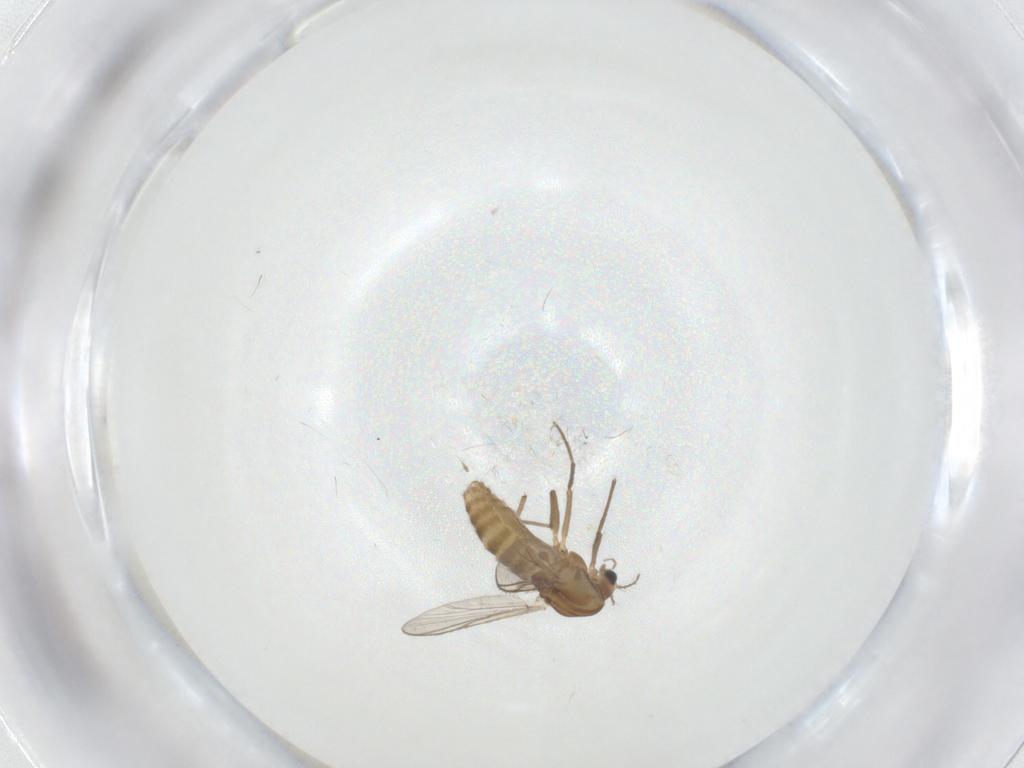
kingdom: Animalia
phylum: Arthropoda
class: Insecta
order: Diptera
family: Chironomidae
